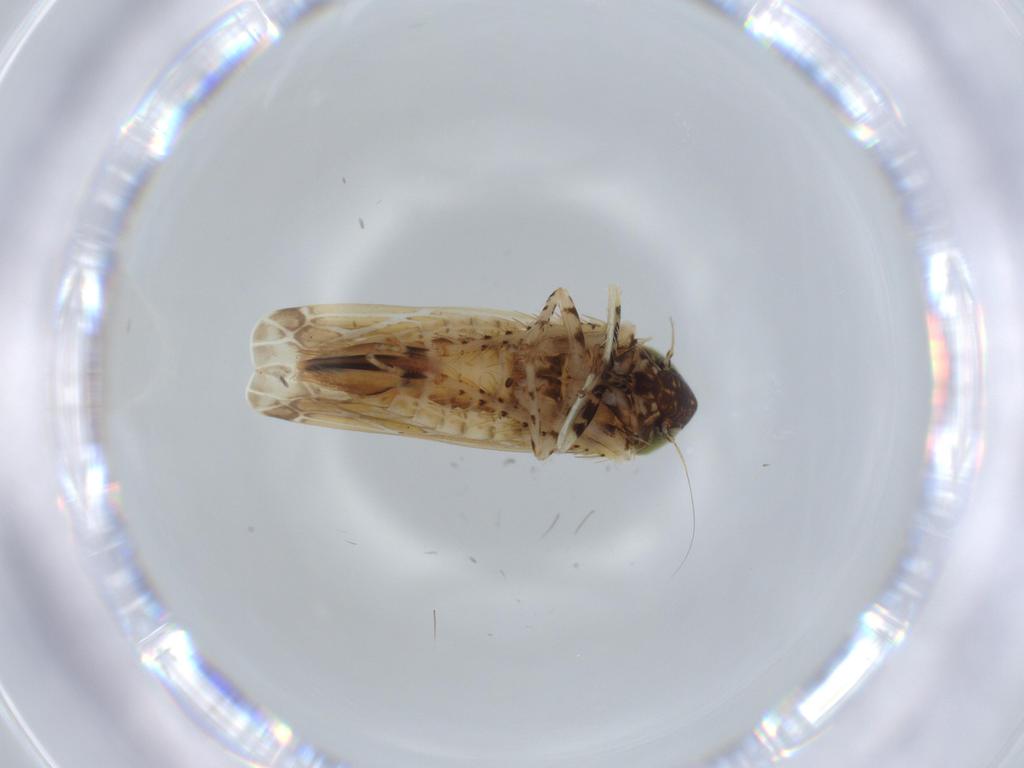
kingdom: Animalia
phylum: Arthropoda
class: Insecta
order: Hemiptera
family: Cicadellidae
